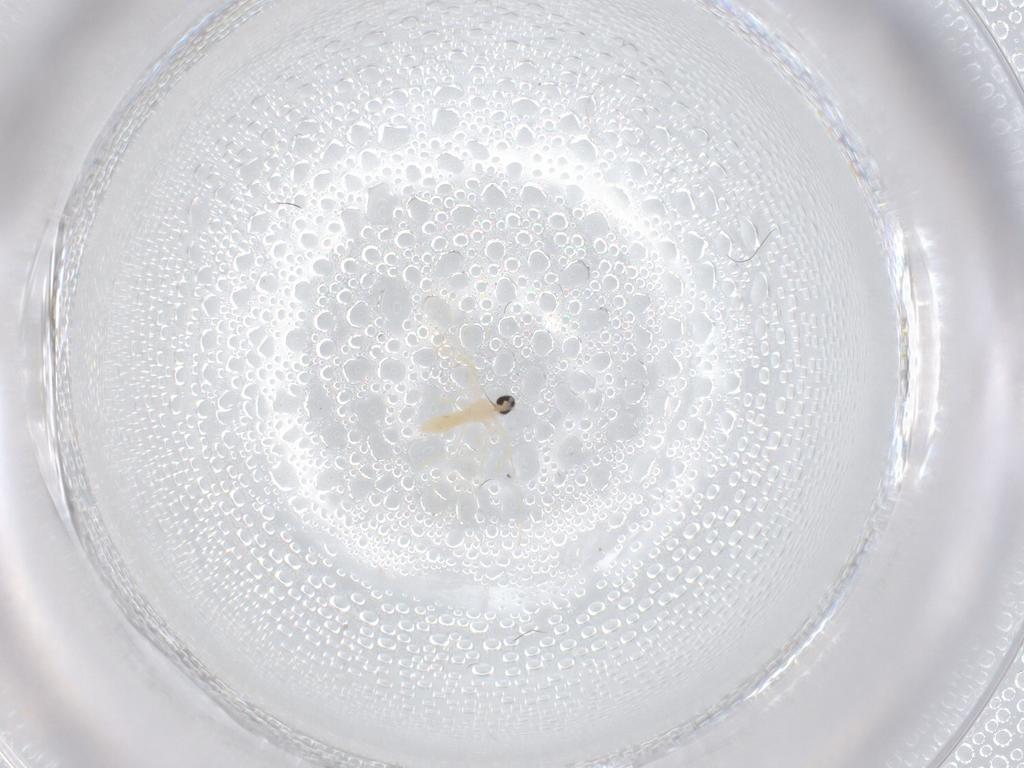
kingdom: Animalia
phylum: Arthropoda
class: Insecta
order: Diptera
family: Cecidomyiidae
